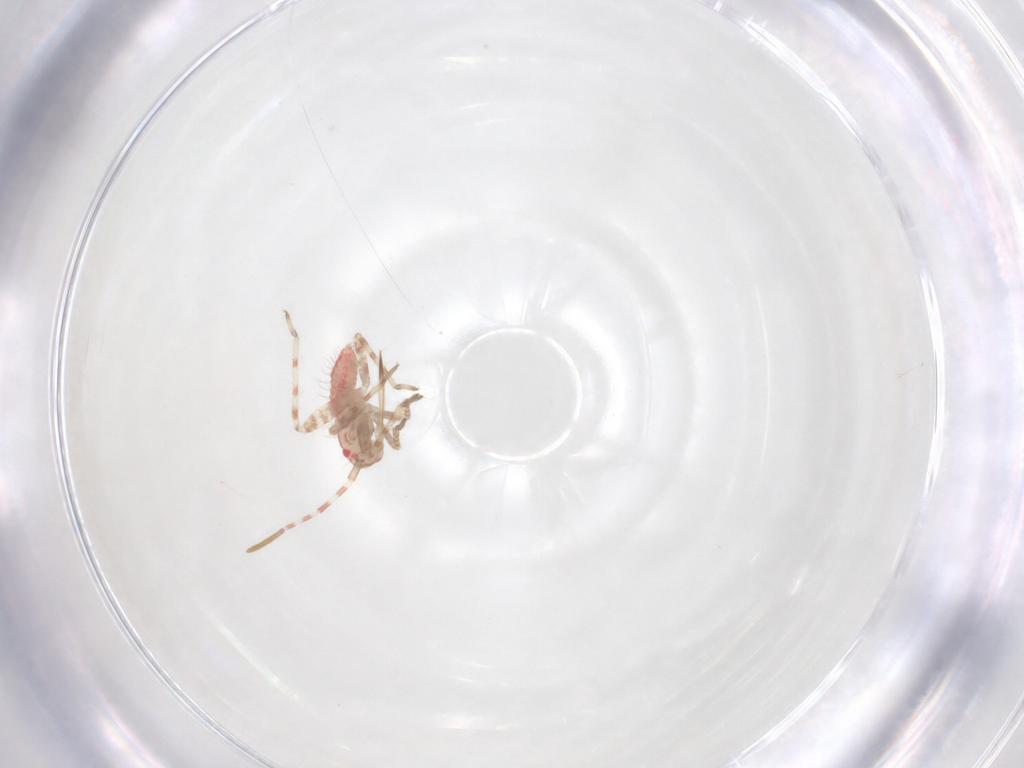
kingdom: Animalia
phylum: Arthropoda
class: Insecta
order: Hemiptera
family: Miridae
